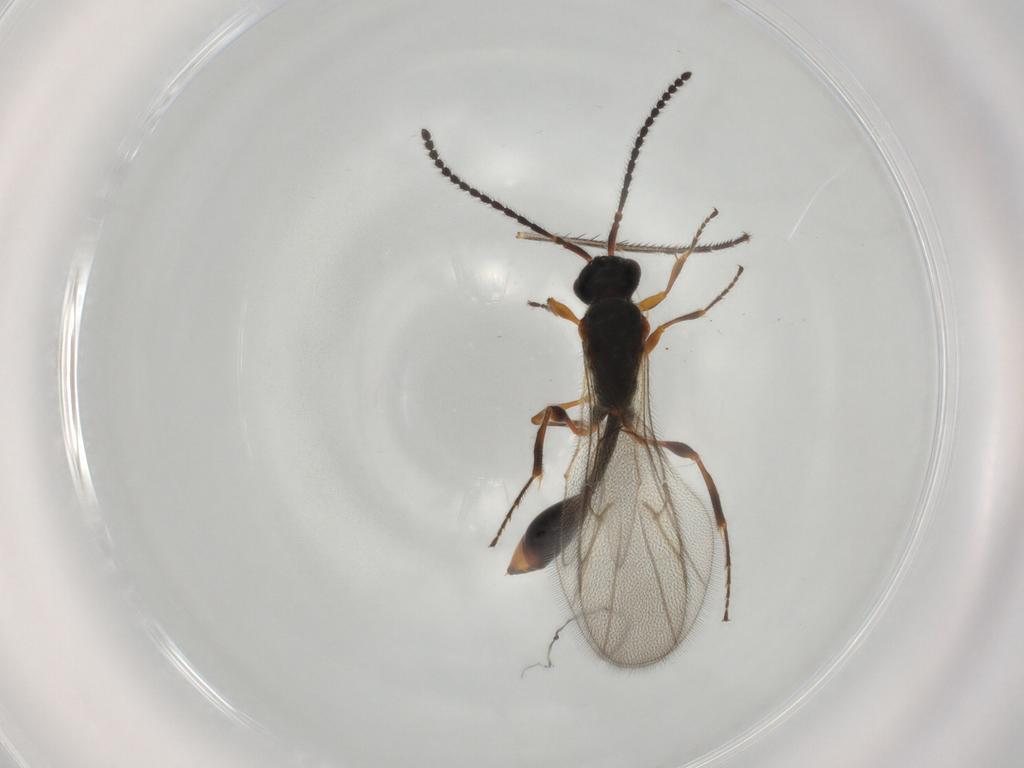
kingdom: Animalia
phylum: Arthropoda
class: Insecta
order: Hymenoptera
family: Diapriidae
